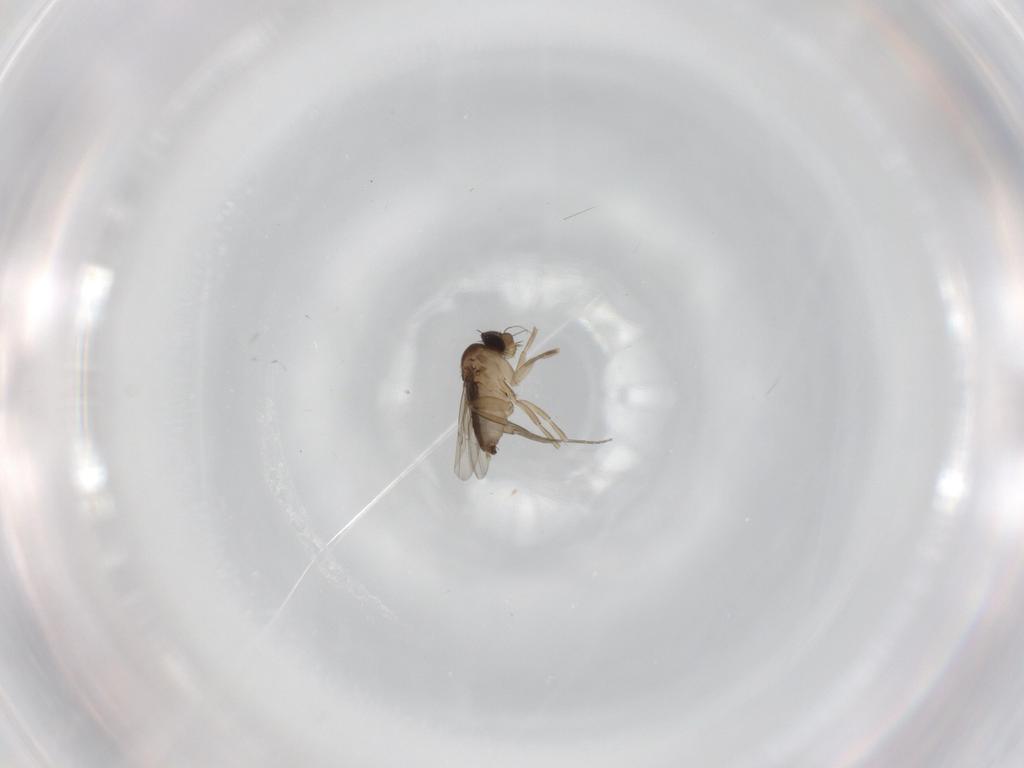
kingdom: Animalia
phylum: Arthropoda
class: Insecta
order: Diptera
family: Phoridae
